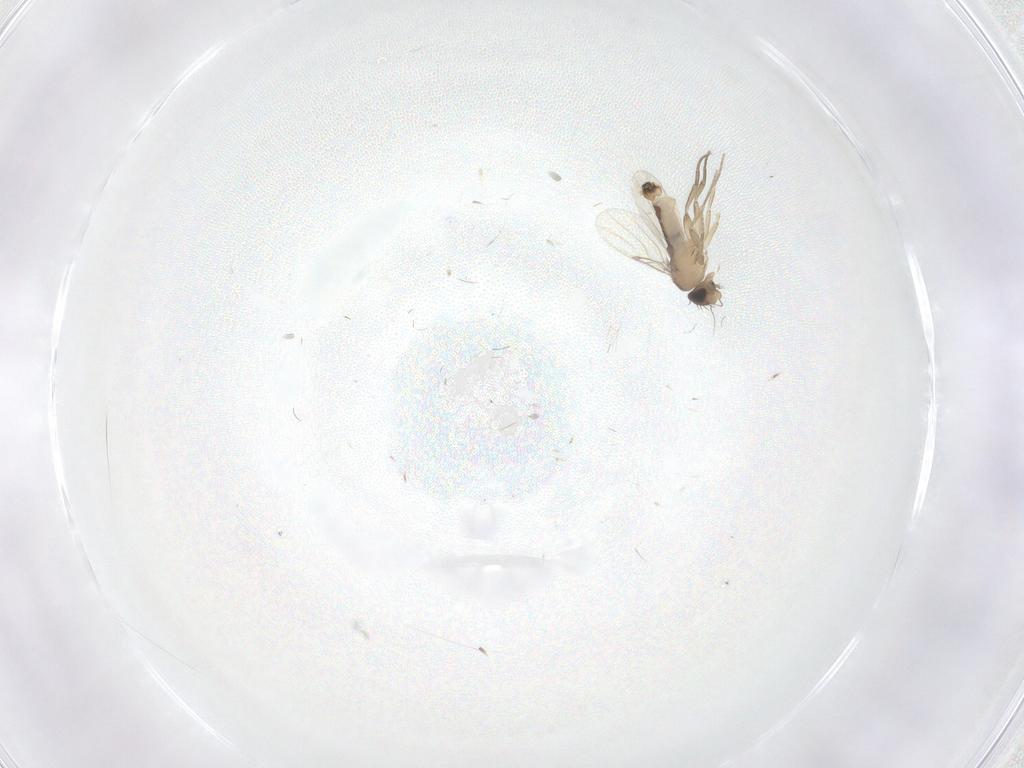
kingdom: Animalia
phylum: Arthropoda
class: Insecta
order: Diptera
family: Phoridae
